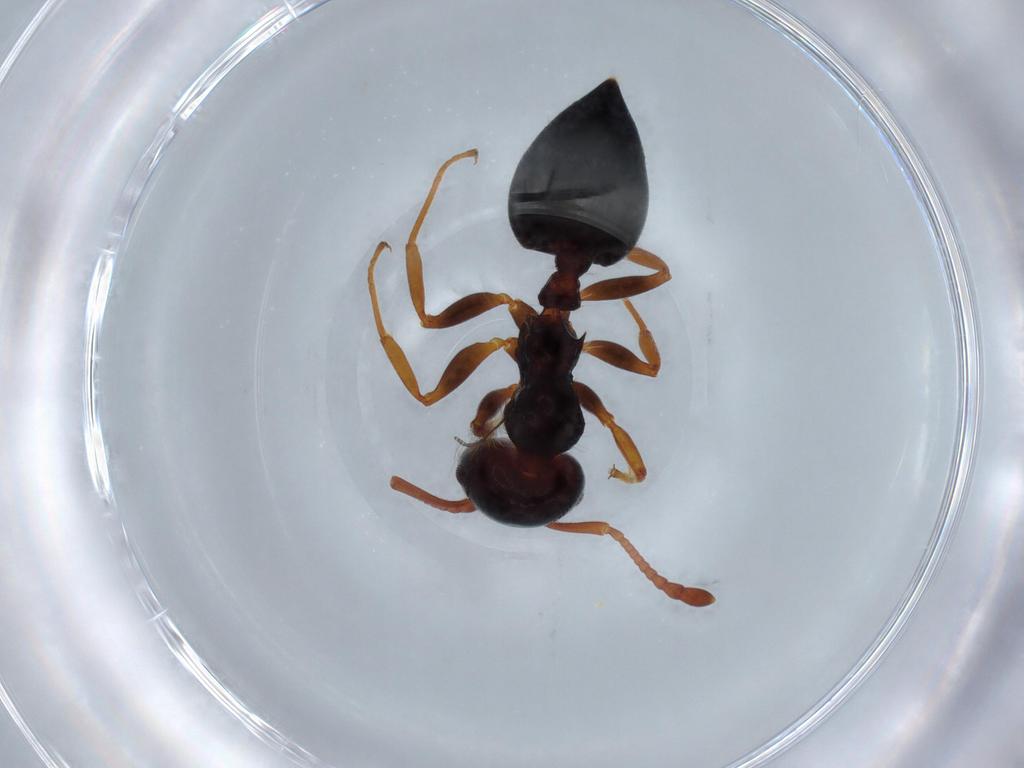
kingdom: Animalia
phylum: Arthropoda
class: Insecta
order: Hymenoptera
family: Formicidae
